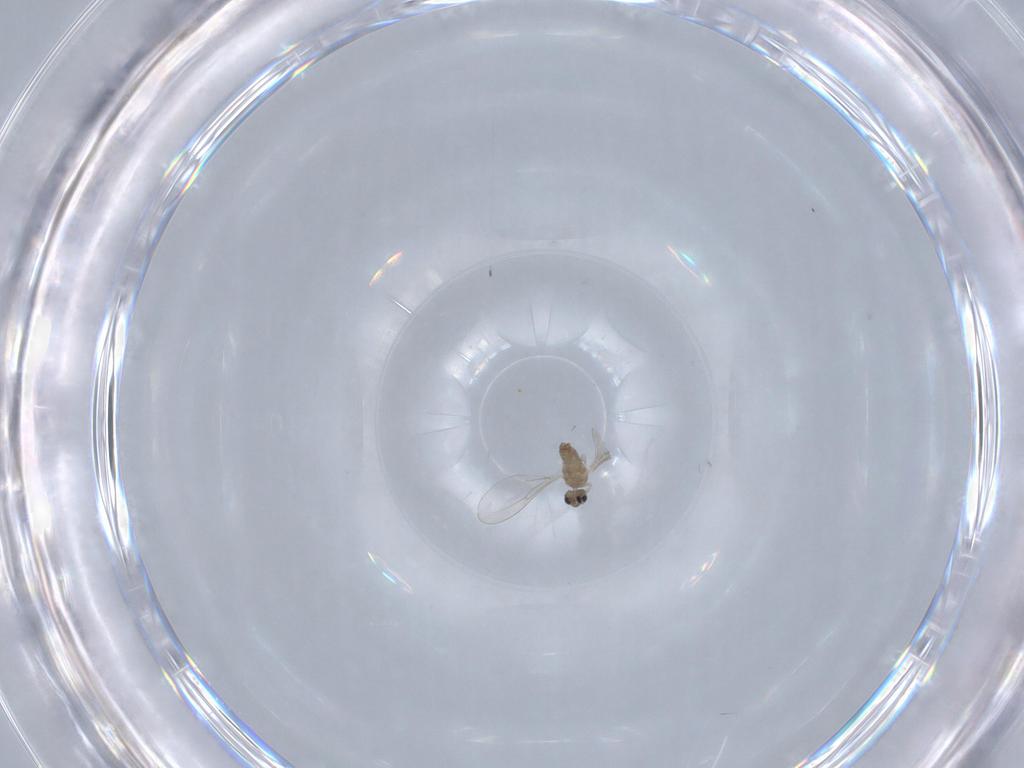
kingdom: Animalia
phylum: Arthropoda
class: Insecta
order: Diptera
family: Cecidomyiidae
